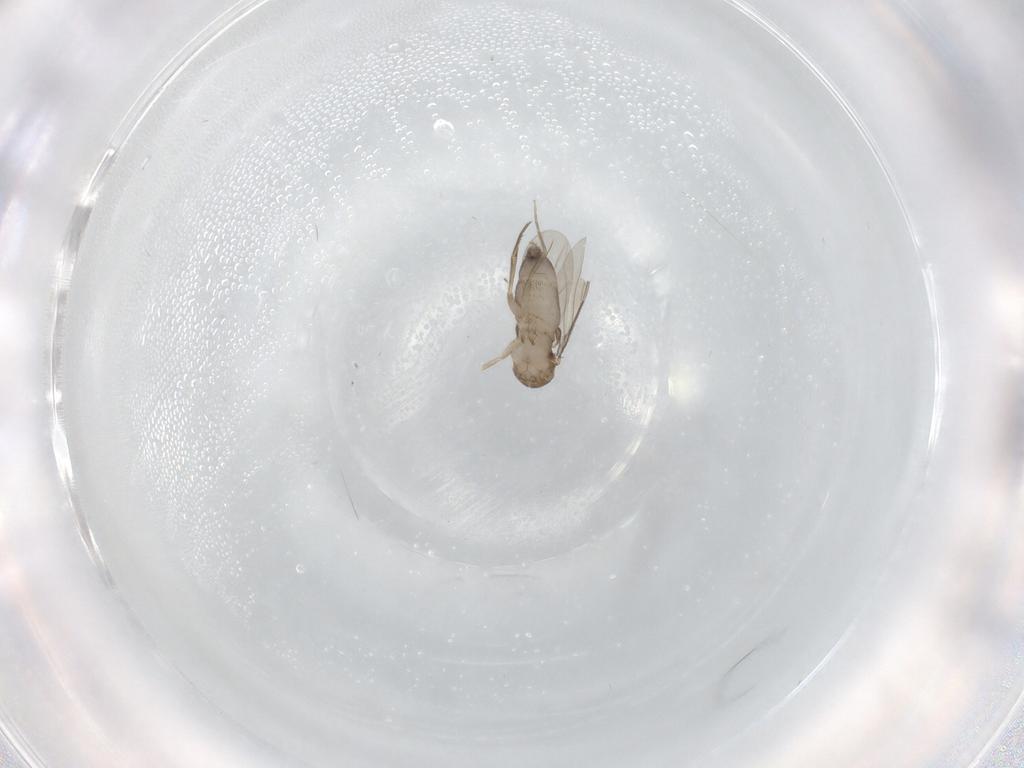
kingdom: Animalia
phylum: Arthropoda
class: Insecta
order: Diptera
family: Phoridae
